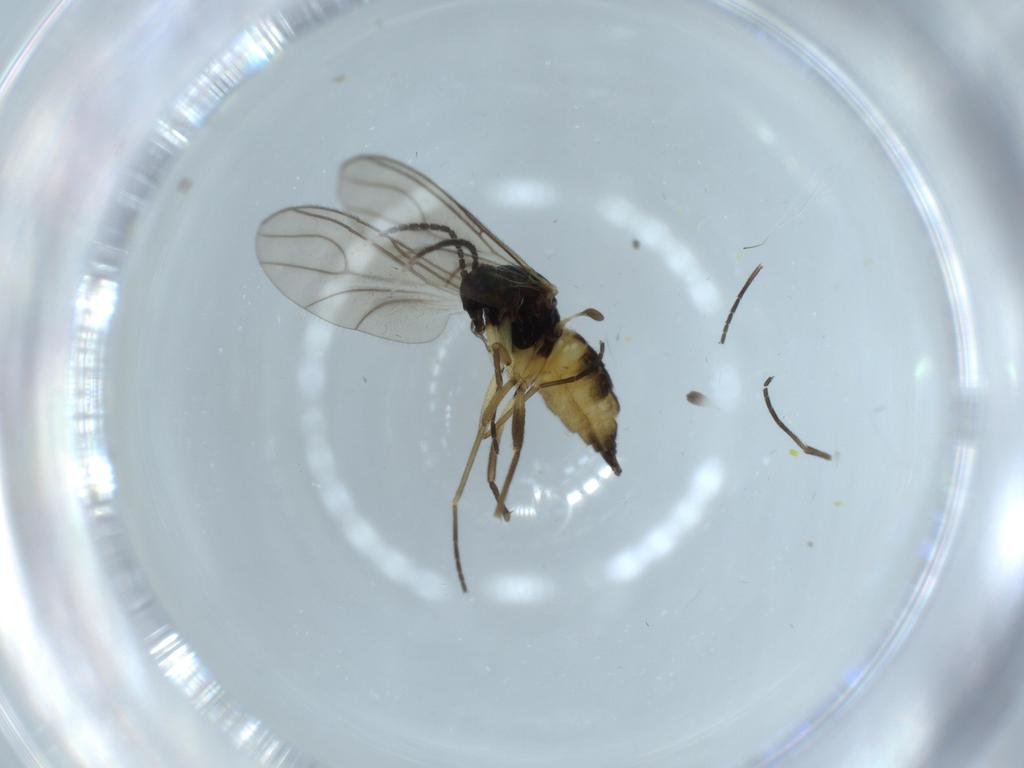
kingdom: Animalia
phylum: Arthropoda
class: Insecta
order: Diptera
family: Sciaridae
